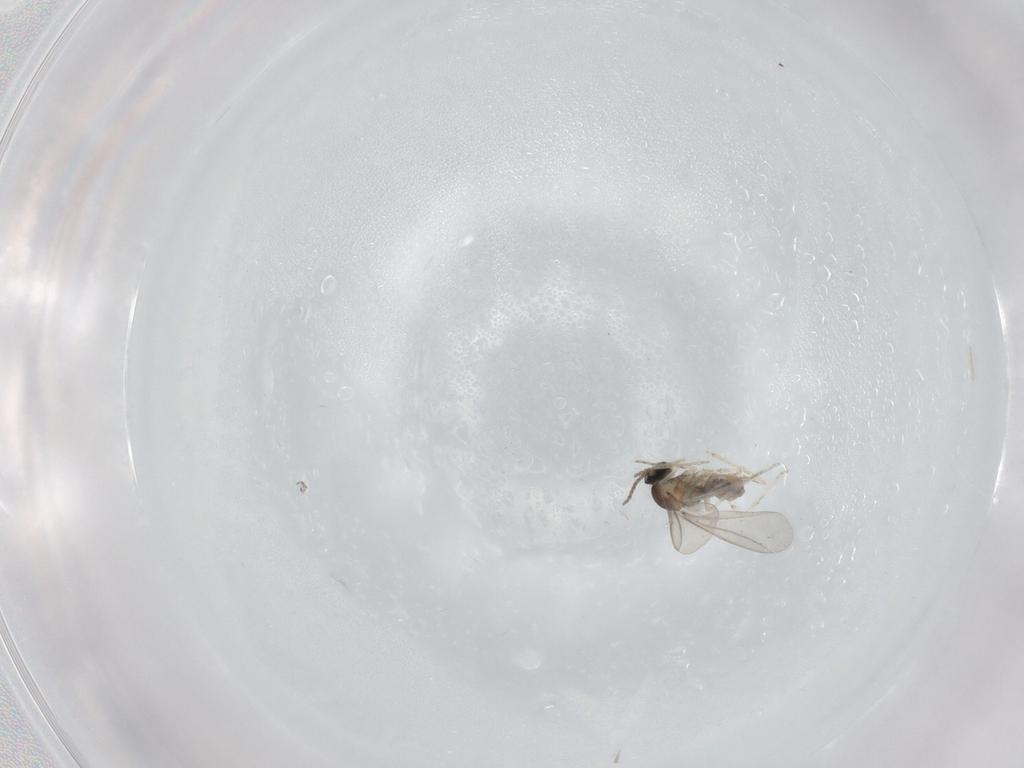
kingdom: Animalia
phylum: Arthropoda
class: Insecta
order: Diptera
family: Cecidomyiidae
